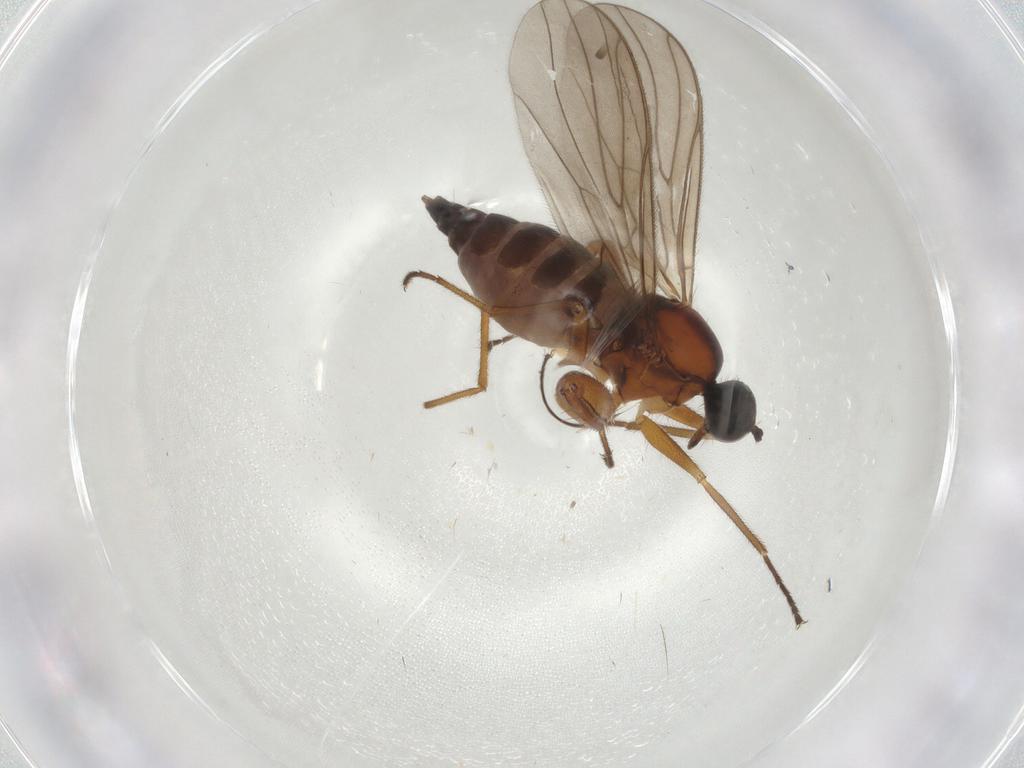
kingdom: Animalia
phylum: Arthropoda
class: Insecta
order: Diptera
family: Hybotidae
